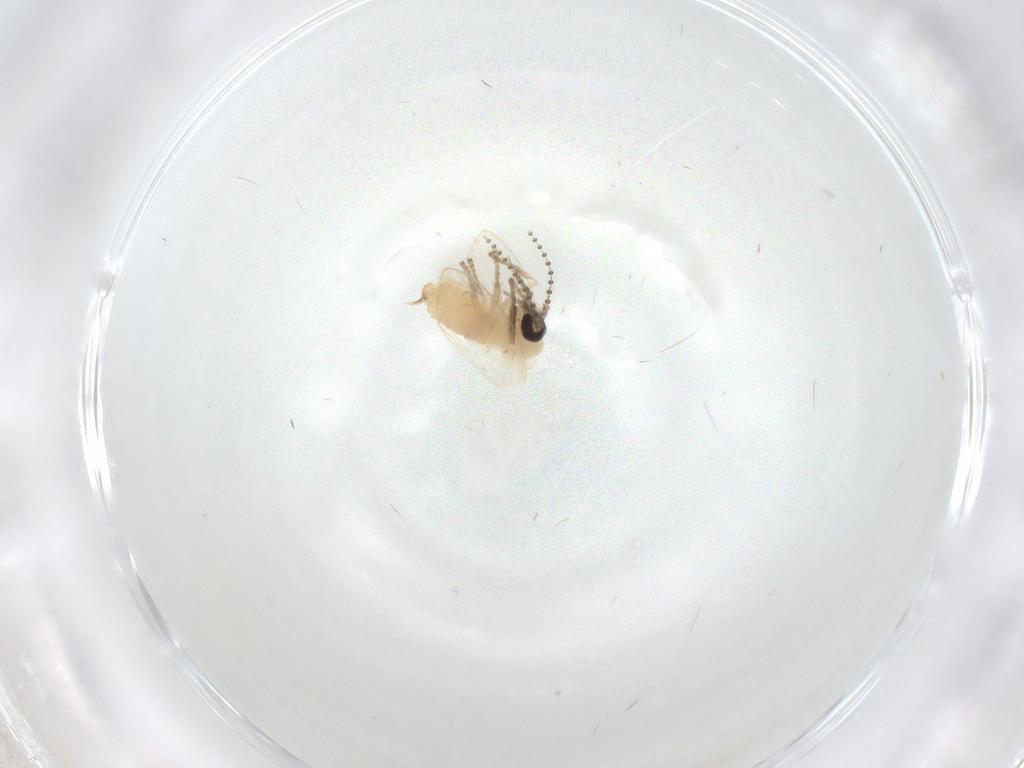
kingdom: Animalia
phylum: Arthropoda
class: Insecta
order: Diptera
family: Psychodidae
